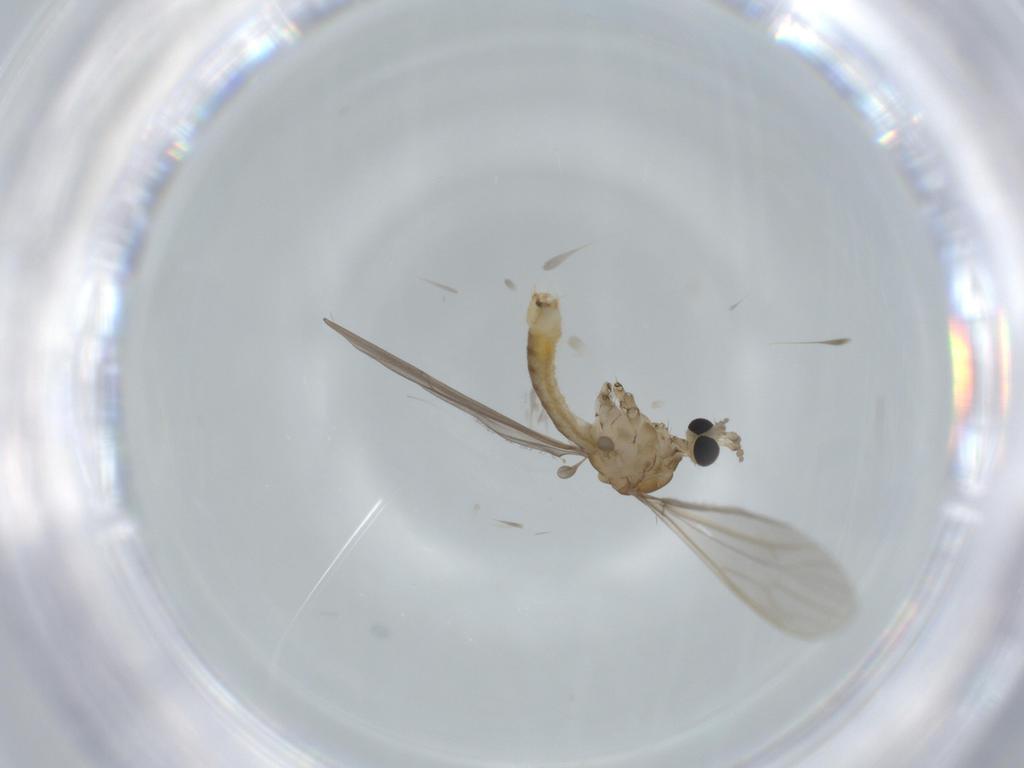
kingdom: Animalia
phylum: Arthropoda
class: Insecta
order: Diptera
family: Limoniidae
